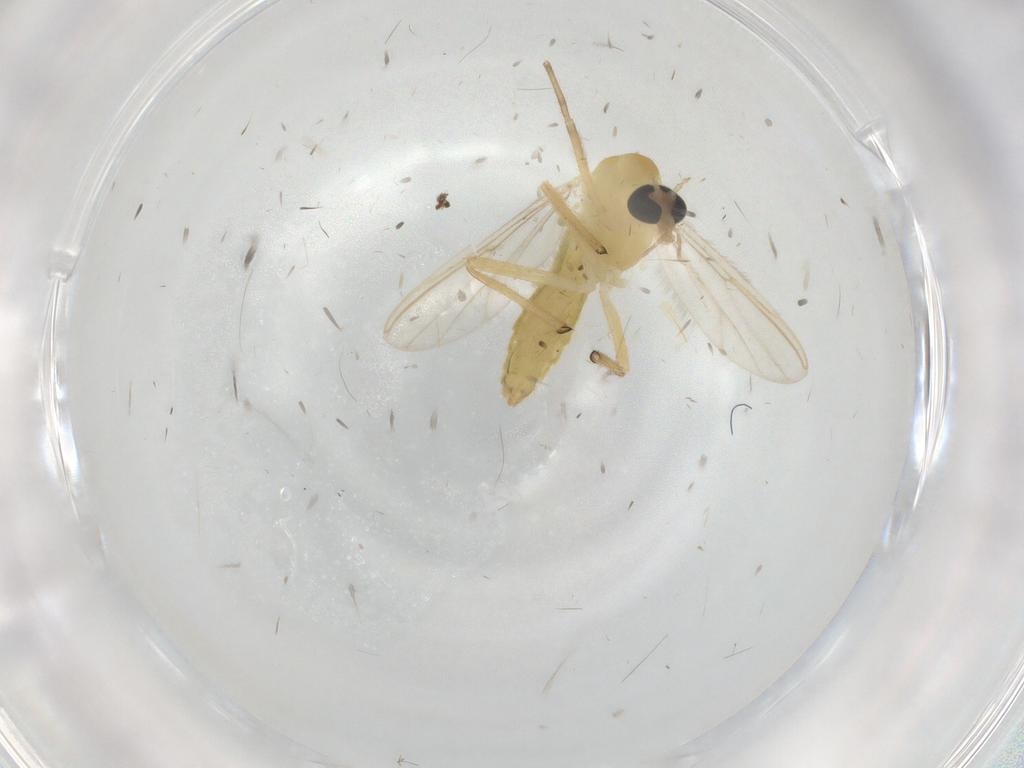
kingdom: Animalia
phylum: Arthropoda
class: Insecta
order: Diptera
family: Chironomidae
